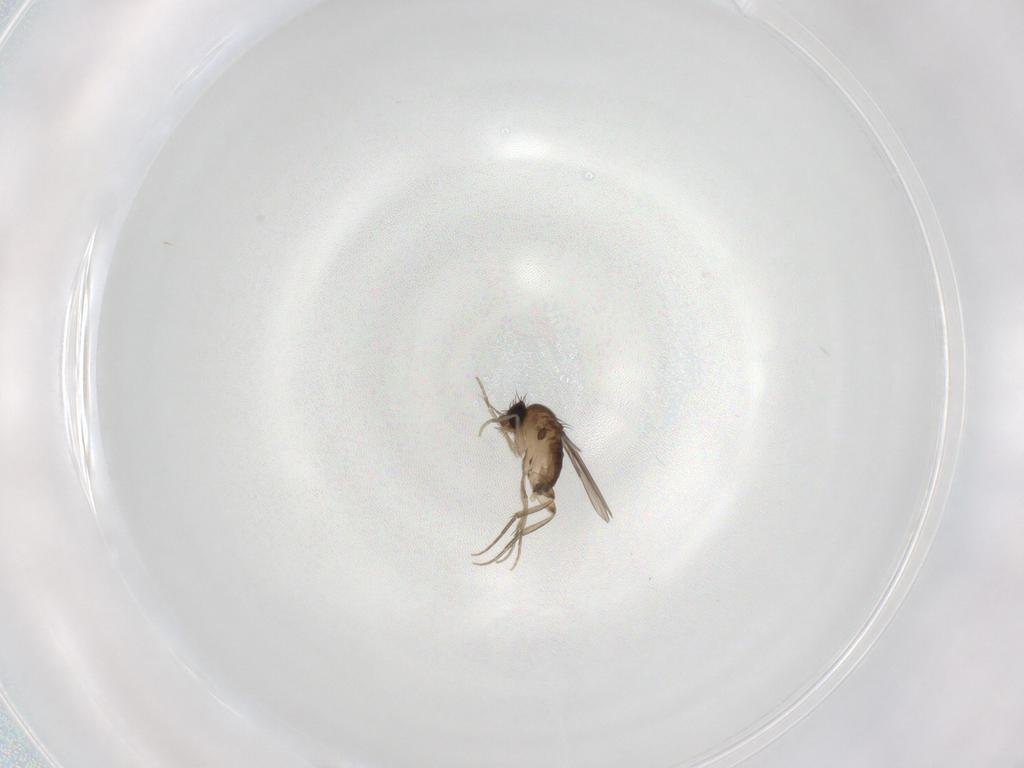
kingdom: Animalia
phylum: Arthropoda
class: Insecta
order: Diptera
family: Phoridae
